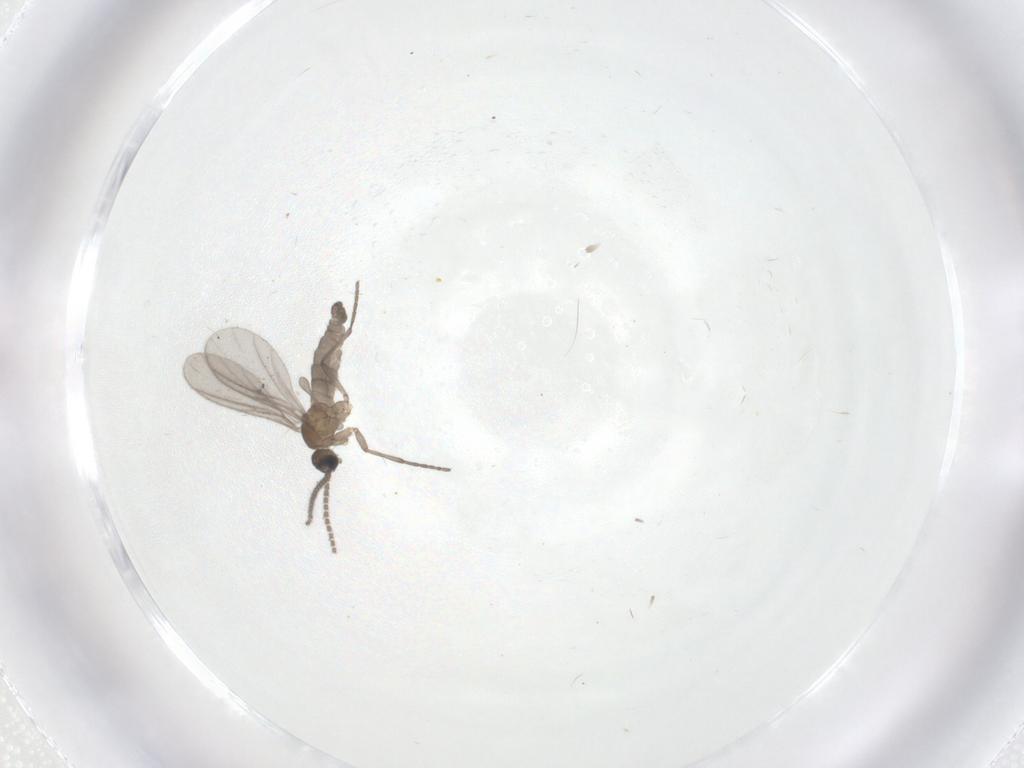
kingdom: Animalia
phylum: Arthropoda
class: Insecta
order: Diptera
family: Sciaridae
